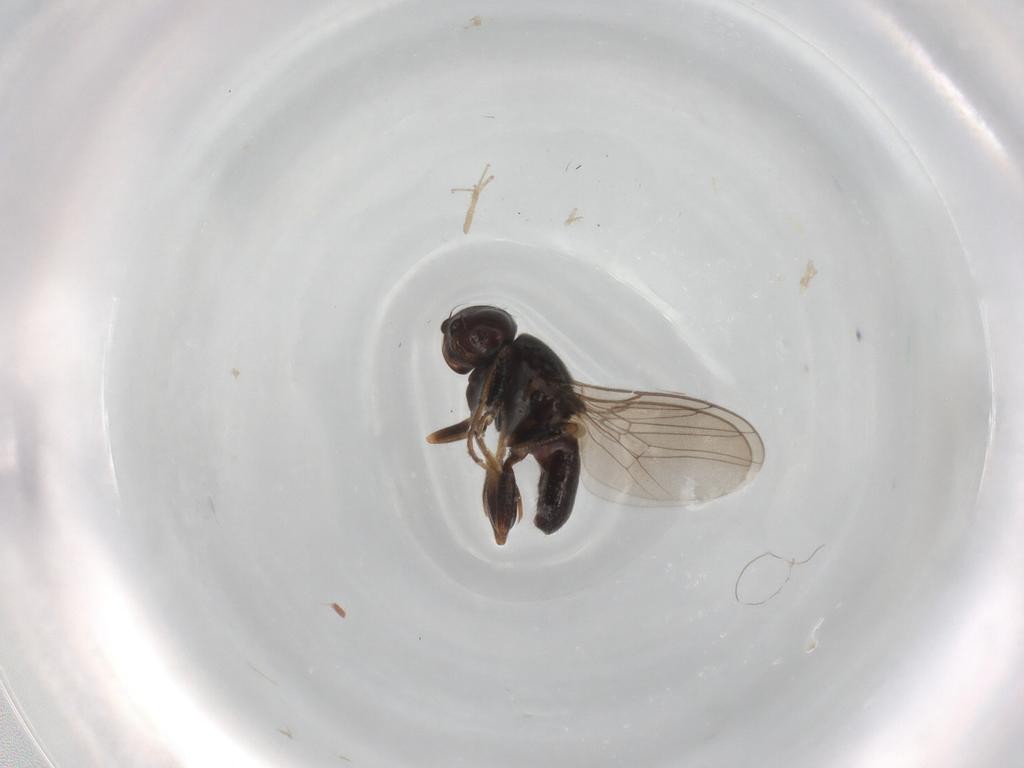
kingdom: Animalia
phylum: Arthropoda
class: Insecta
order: Diptera
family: Chloropidae
